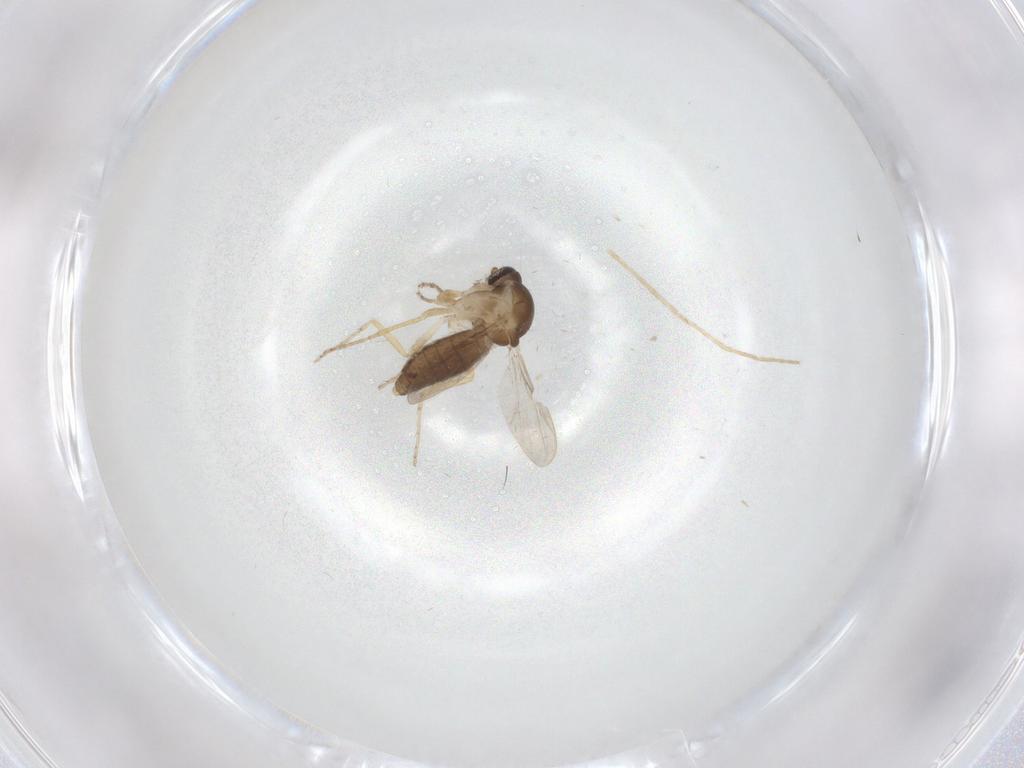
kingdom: Animalia
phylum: Arthropoda
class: Insecta
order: Diptera
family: Ceratopogonidae
